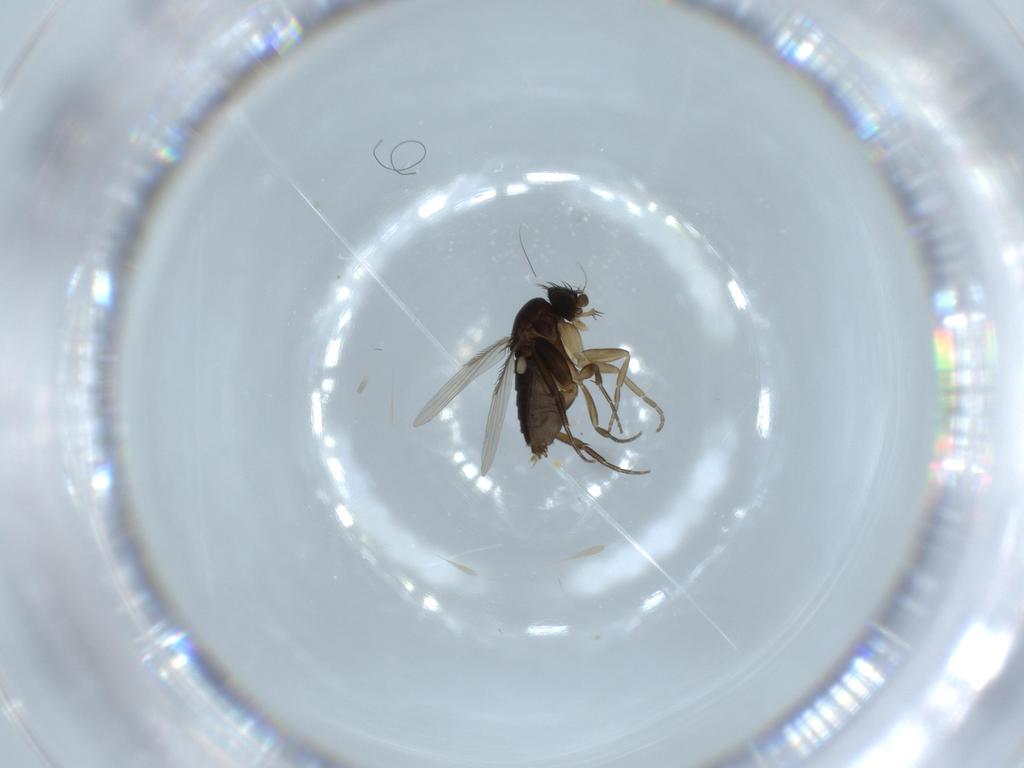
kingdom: Animalia
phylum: Arthropoda
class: Insecta
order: Diptera
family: Phoridae
